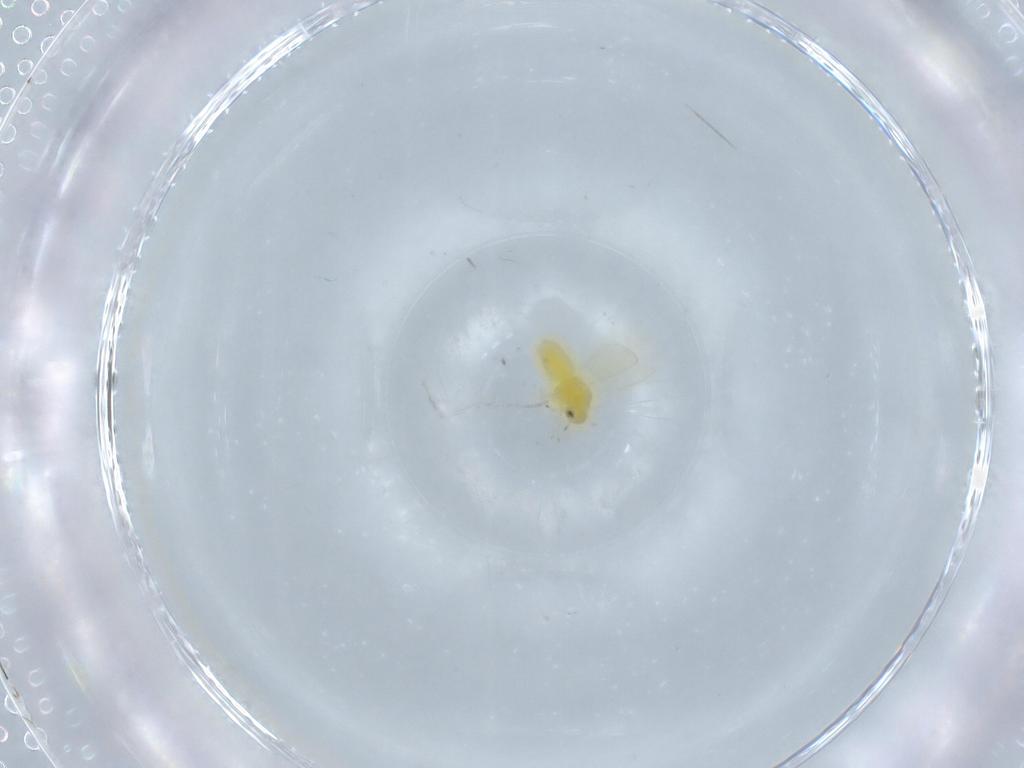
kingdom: Animalia
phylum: Arthropoda
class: Insecta
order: Hemiptera
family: Aleyrodidae
